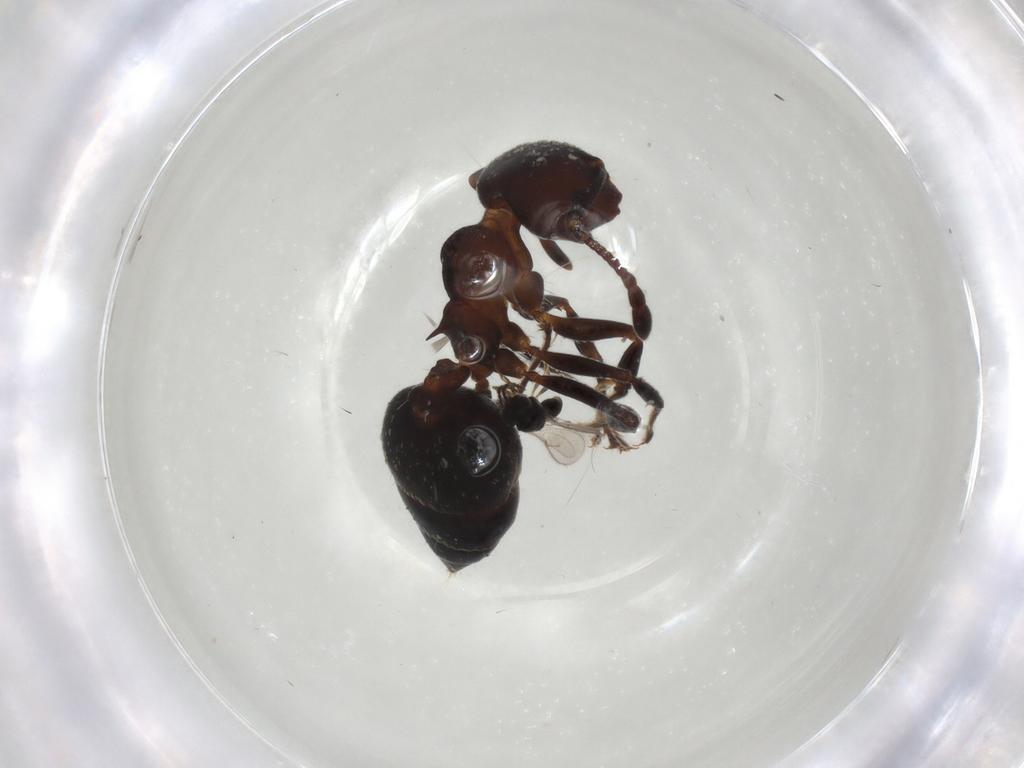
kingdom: Animalia
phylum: Arthropoda
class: Insecta
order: Hymenoptera
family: Formicidae
